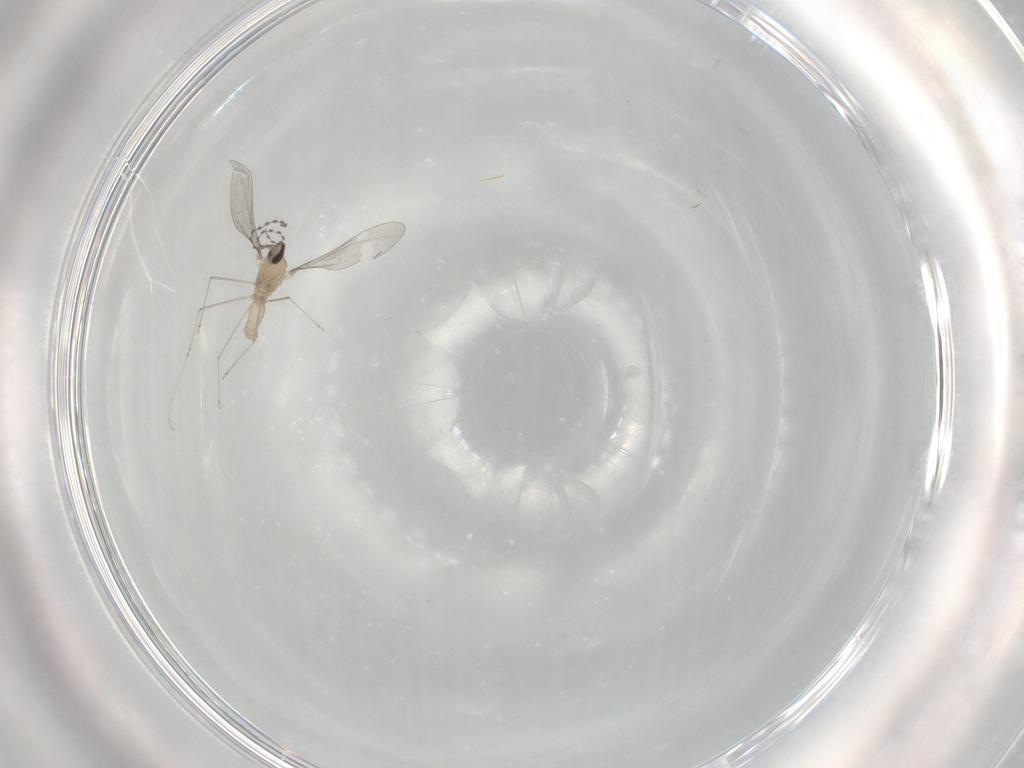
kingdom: Animalia
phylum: Arthropoda
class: Insecta
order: Diptera
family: Cecidomyiidae
